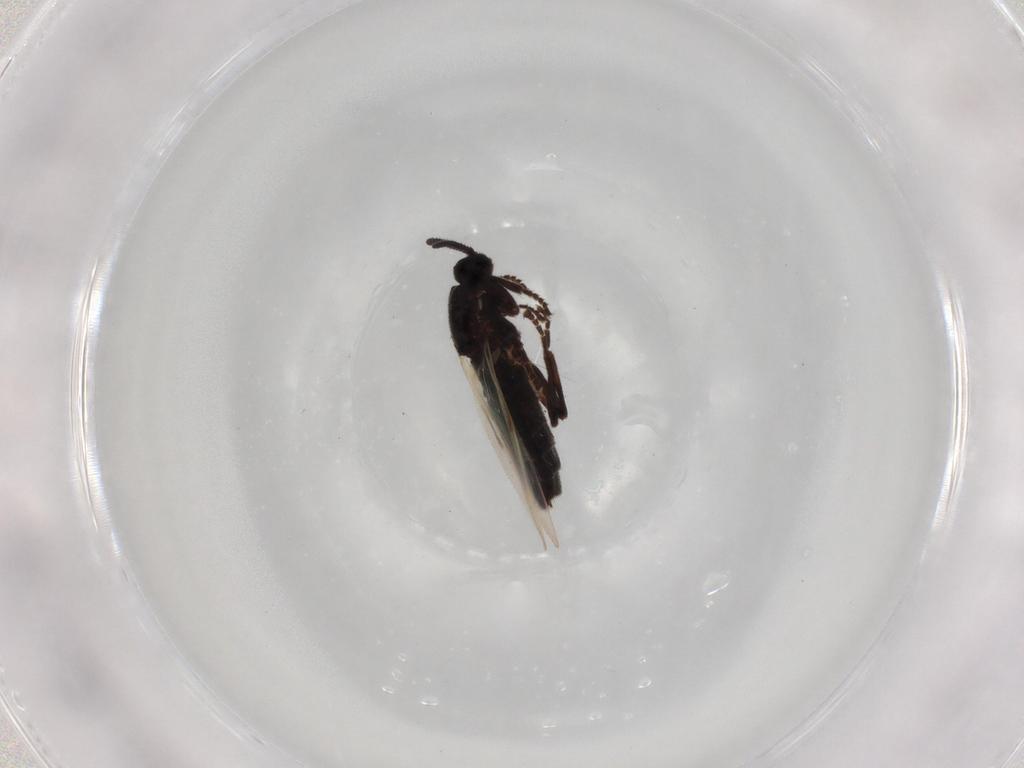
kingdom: Animalia
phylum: Arthropoda
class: Insecta
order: Diptera
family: Scatopsidae
